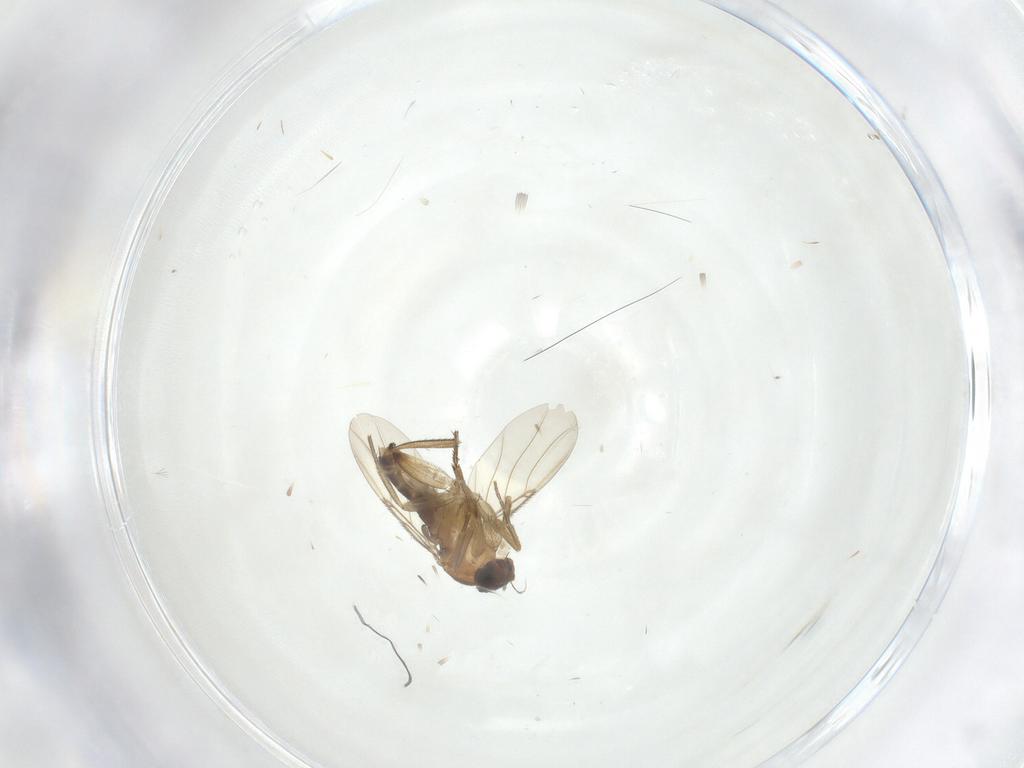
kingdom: Animalia
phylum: Arthropoda
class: Insecta
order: Diptera
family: Phoridae
